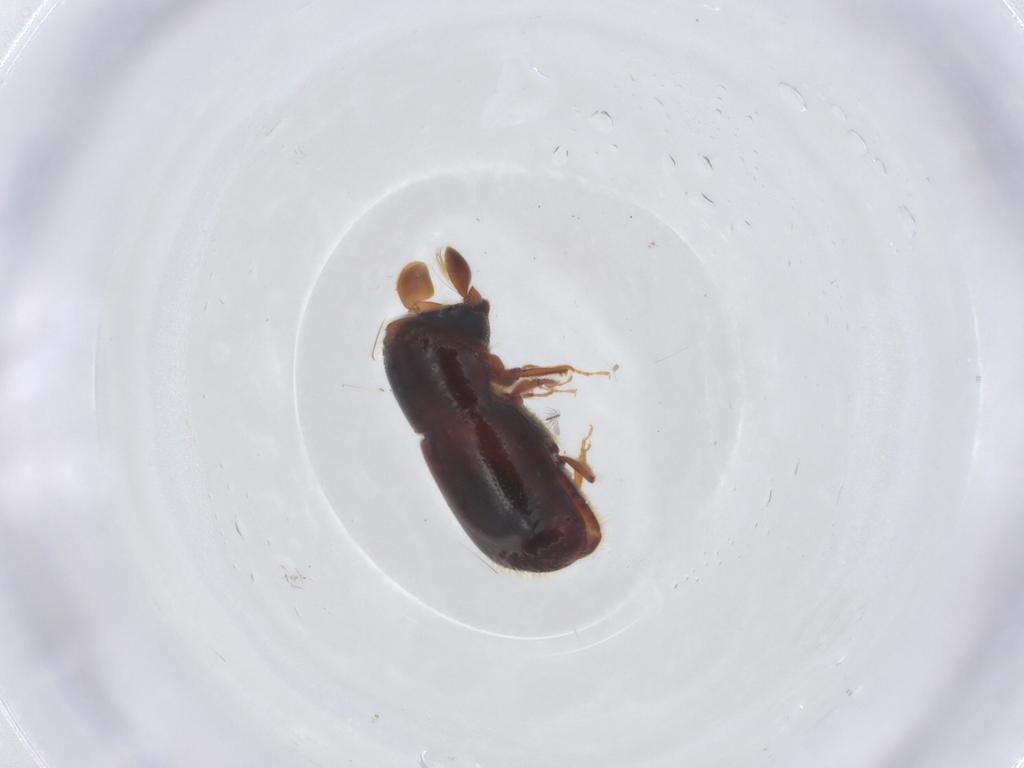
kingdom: Animalia
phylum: Arthropoda
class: Insecta
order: Coleoptera
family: Curculionidae
